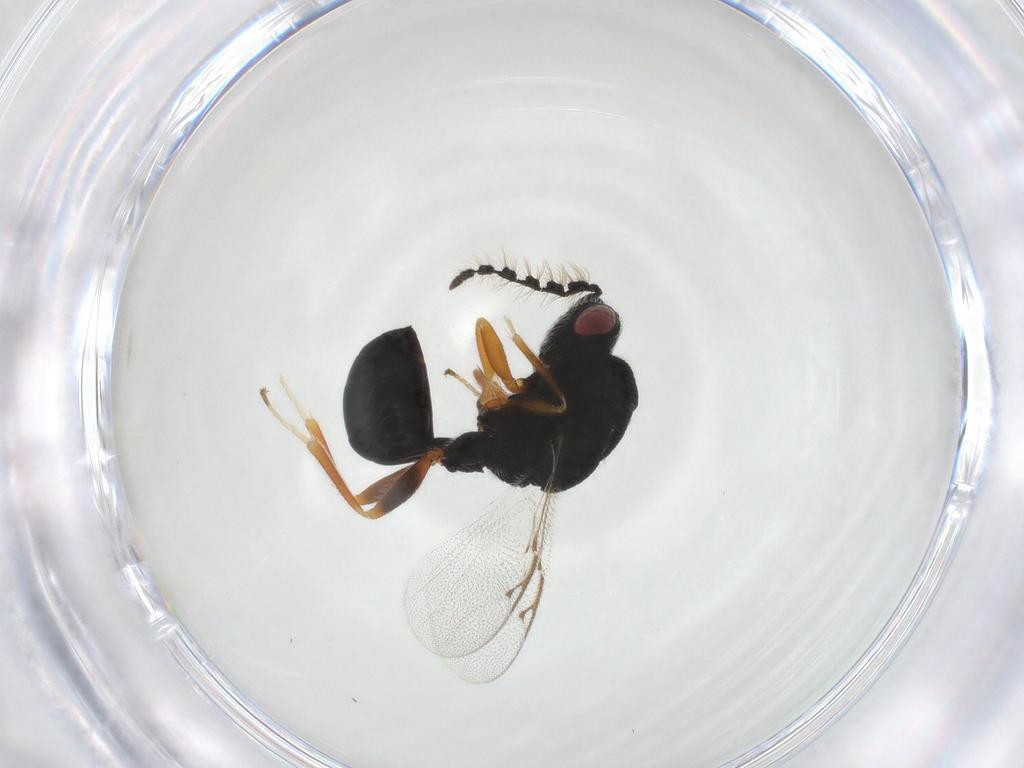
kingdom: Animalia
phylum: Arthropoda
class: Insecta
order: Hymenoptera
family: Eurytomidae
